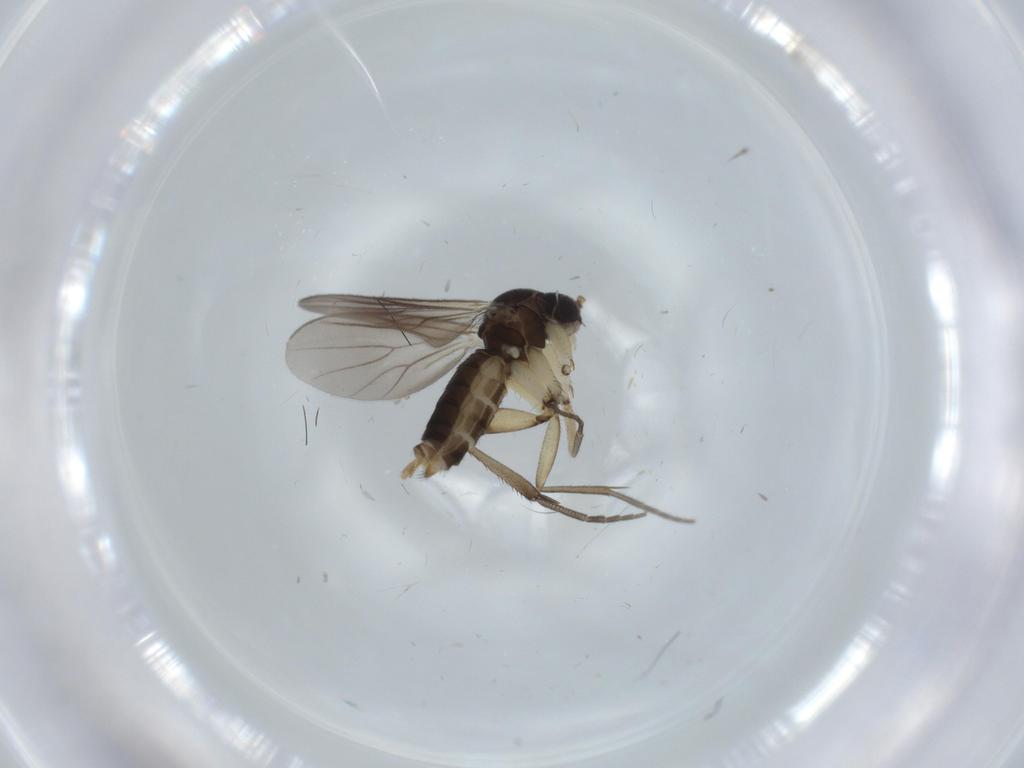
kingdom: Animalia
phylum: Arthropoda
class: Insecta
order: Diptera
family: Mycetophilidae
